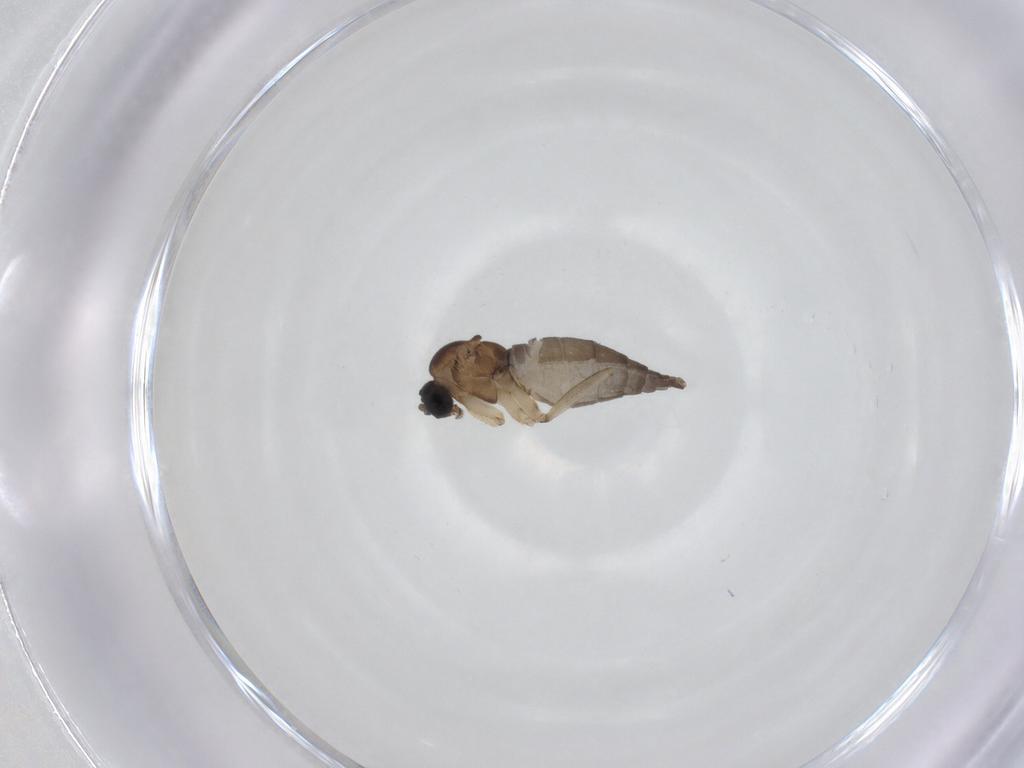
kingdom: Animalia
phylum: Arthropoda
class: Insecta
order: Diptera
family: Sciaridae
